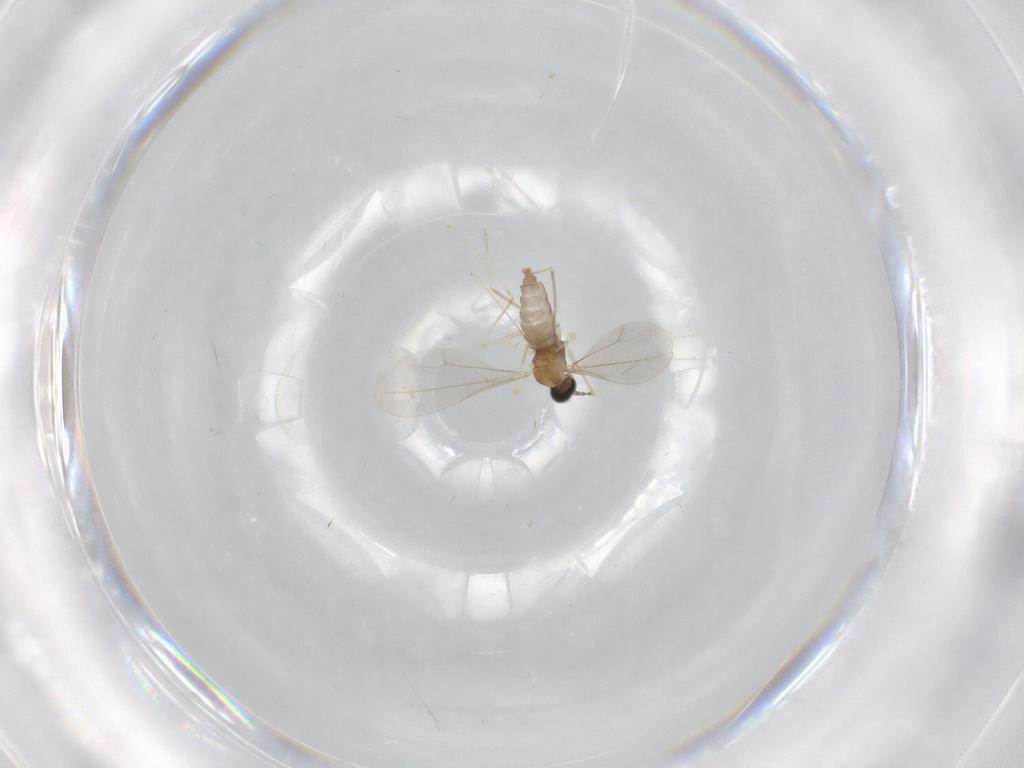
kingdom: Animalia
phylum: Arthropoda
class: Insecta
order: Diptera
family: Cecidomyiidae
